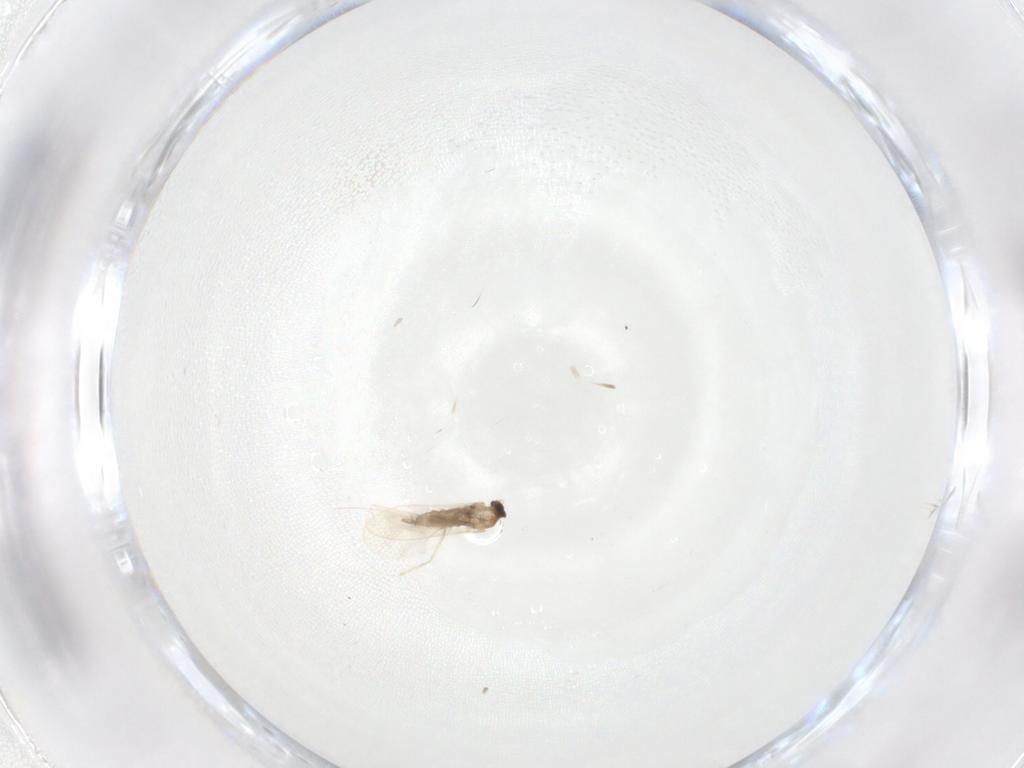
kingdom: Animalia
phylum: Arthropoda
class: Insecta
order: Diptera
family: Cecidomyiidae
